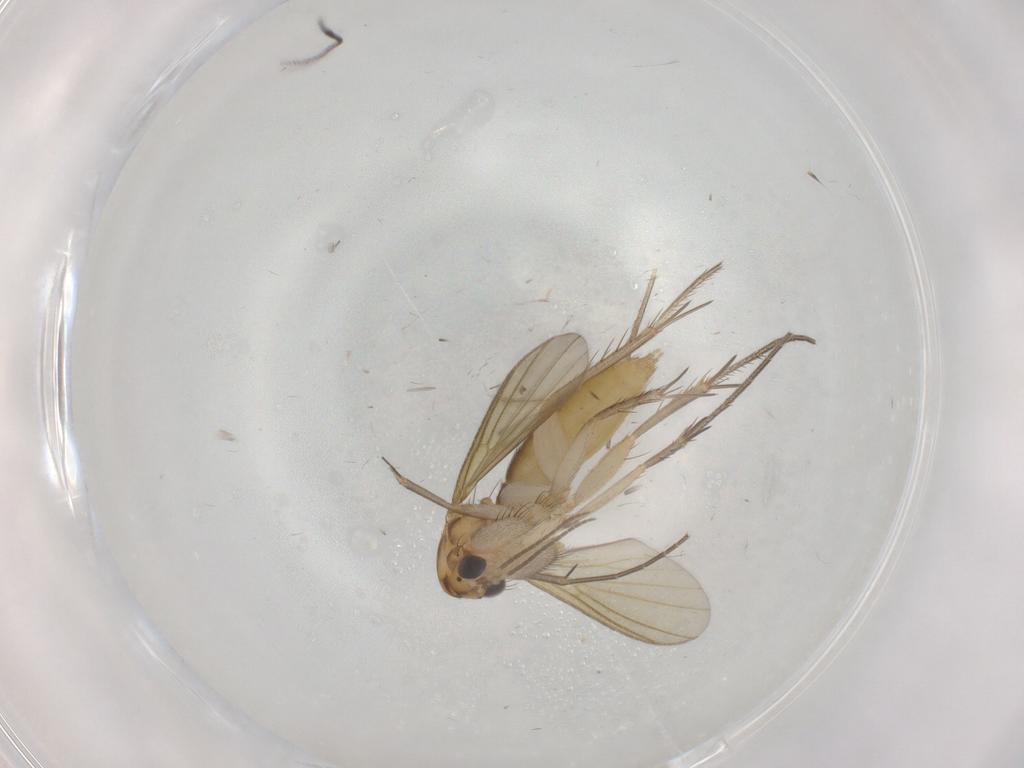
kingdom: Animalia
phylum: Arthropoda
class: Insecta
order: Diptera
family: Mycetophilidae
